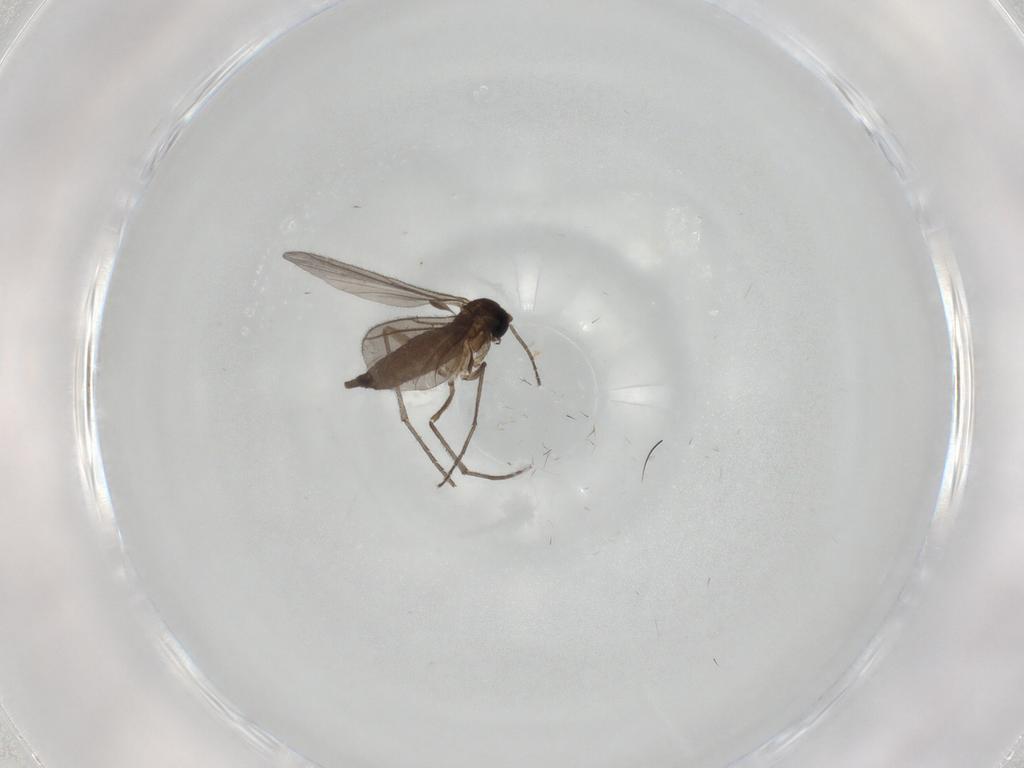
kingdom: Animalia
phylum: Arthropoda
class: Insecta
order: Diptera
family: Sciaridae
